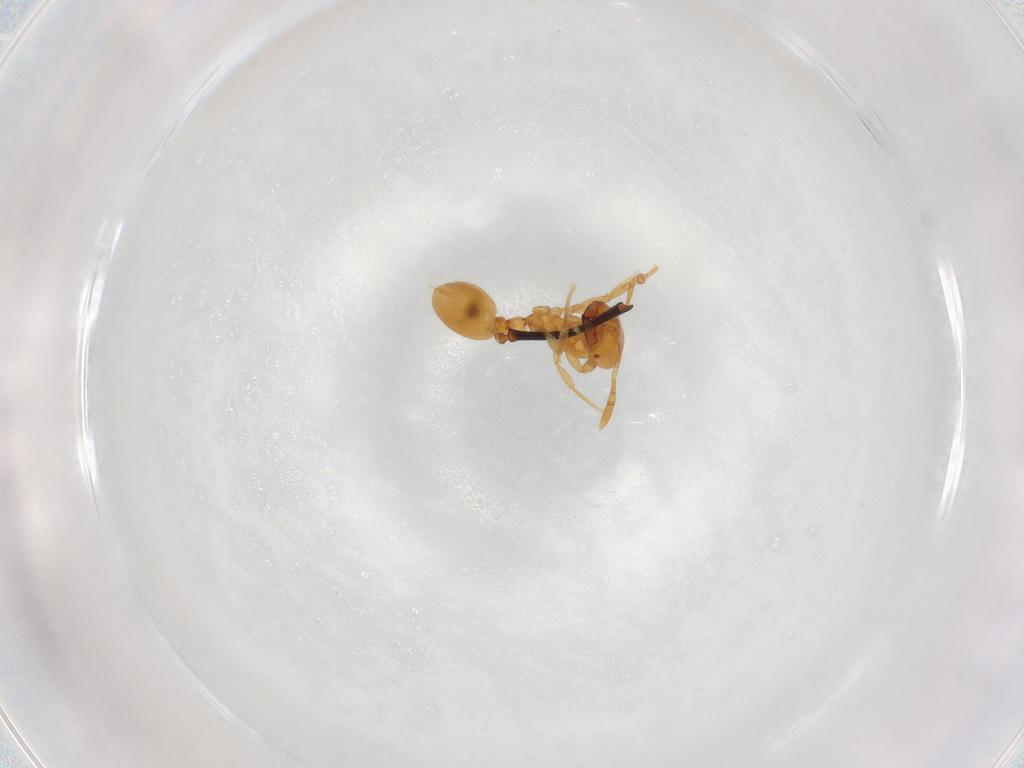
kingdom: Animalia
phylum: Arthropoda
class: Insecta
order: Hymenoptera
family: Formicidae
